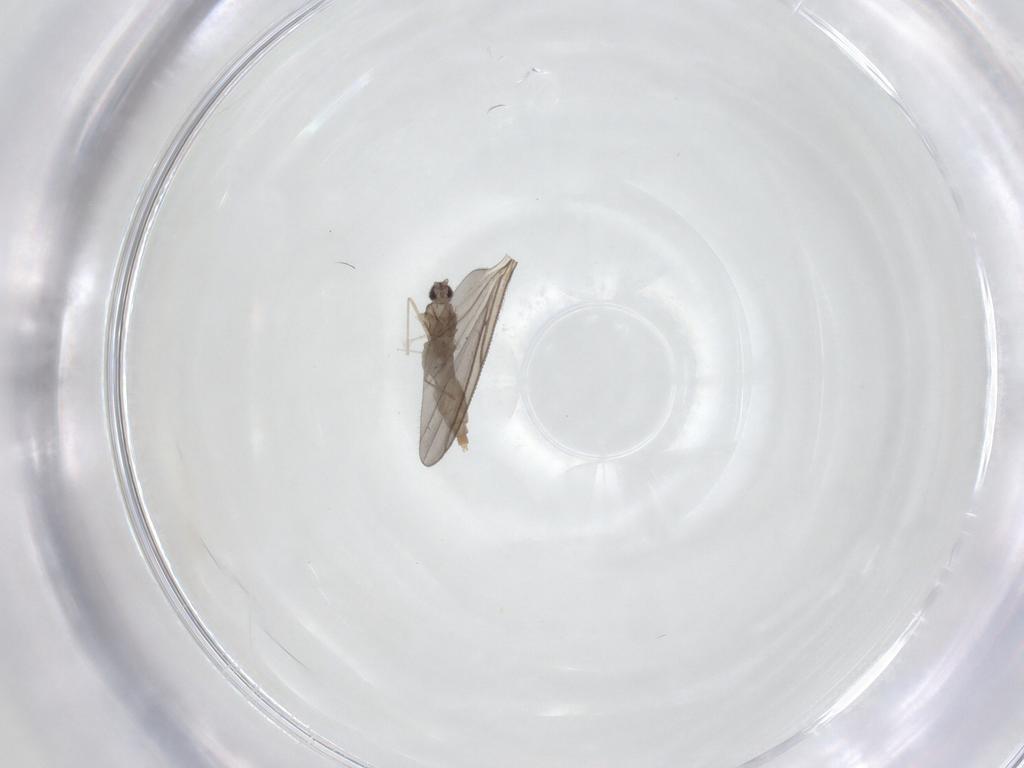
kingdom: Animalia
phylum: Arthropoda
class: Insecta
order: Diptera
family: Cecidomyiidae
